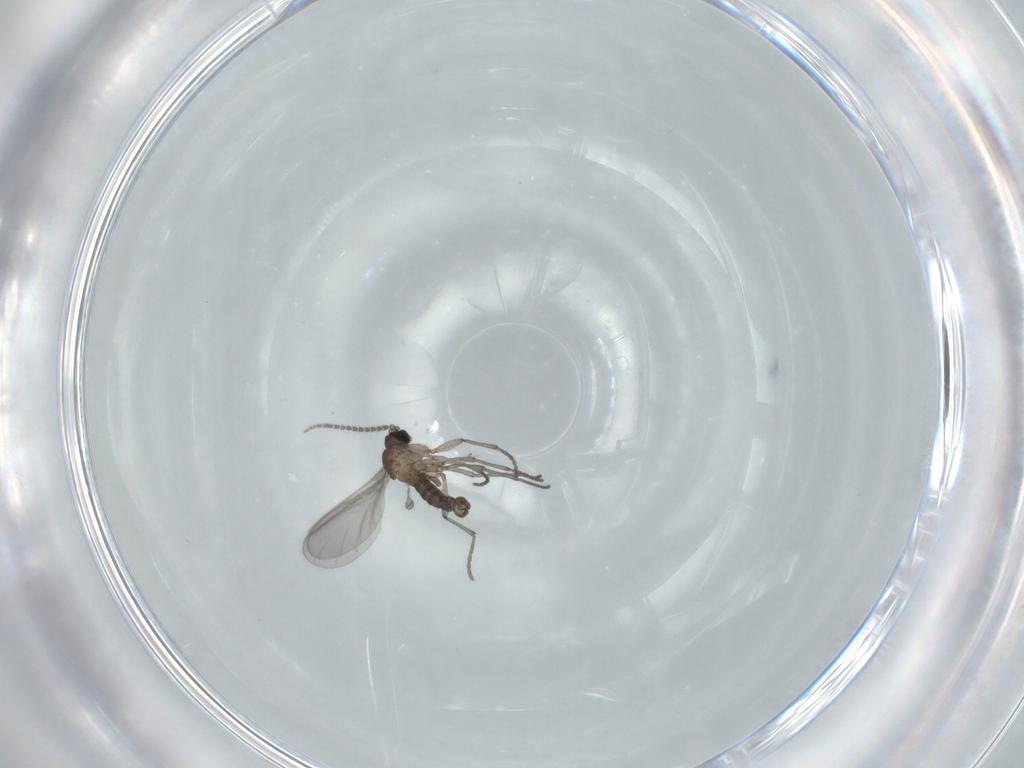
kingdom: Animalia
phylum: Arthropoda
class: Insecta
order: Diptera
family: Sciaridae
